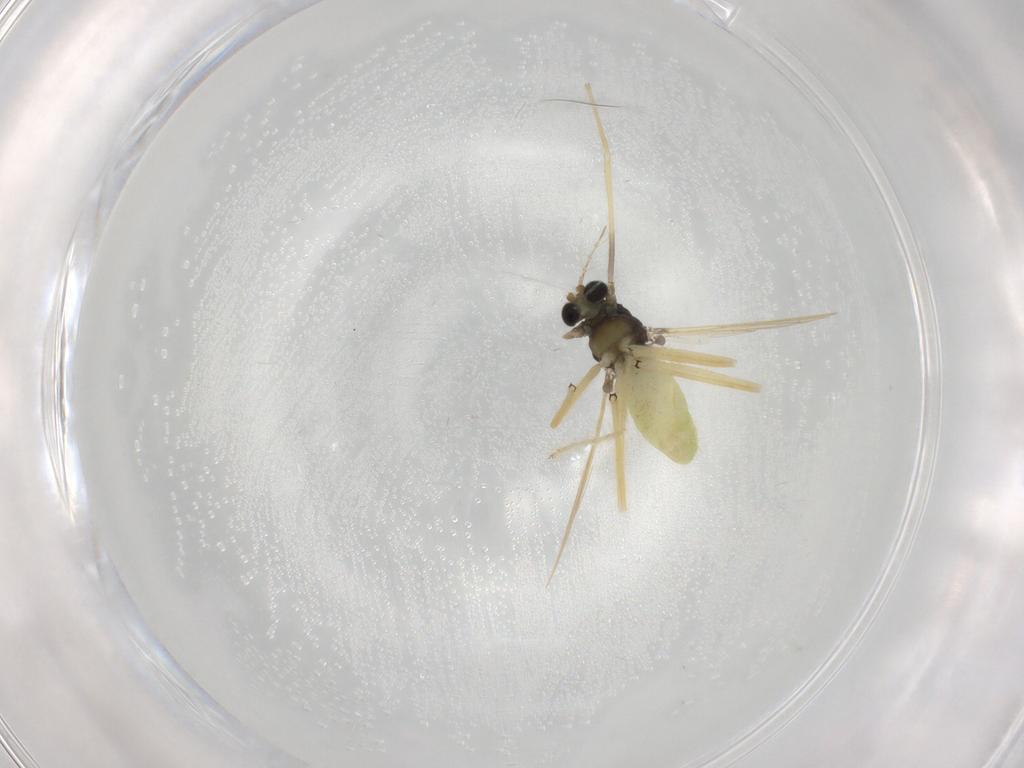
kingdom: Animalia
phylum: Arthropoda
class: Insecta
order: Diptera
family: Chironomidae
